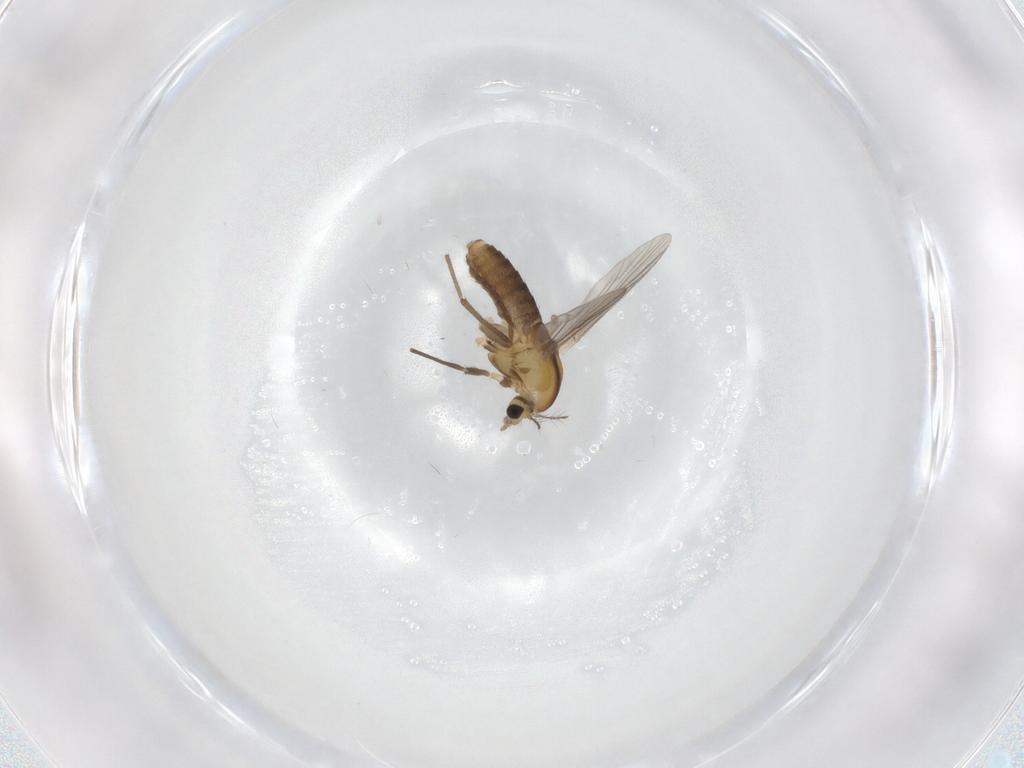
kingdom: Animalia
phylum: Arthropoda
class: Insecta
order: Diptera
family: Chironomidae
